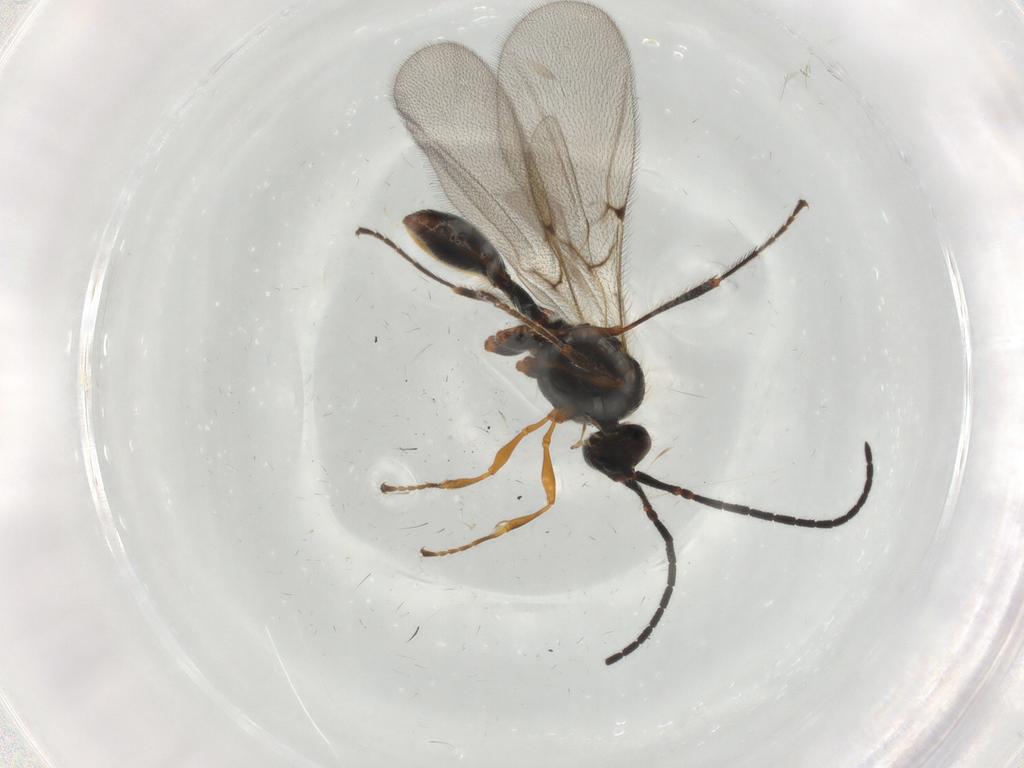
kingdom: Animalia
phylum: Arthropoda
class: Insecta
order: Hymenoptera
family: Diapriidae
